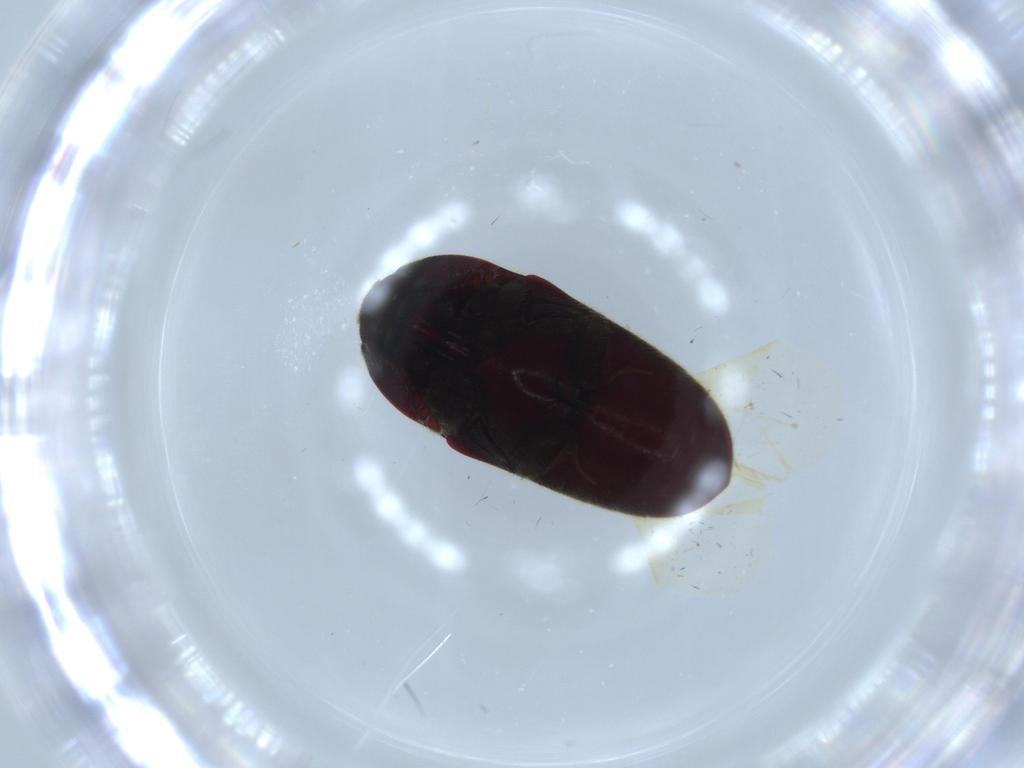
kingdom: Animalia
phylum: Arthropoda
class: Insecta
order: Coleoptera
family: Throscidae
